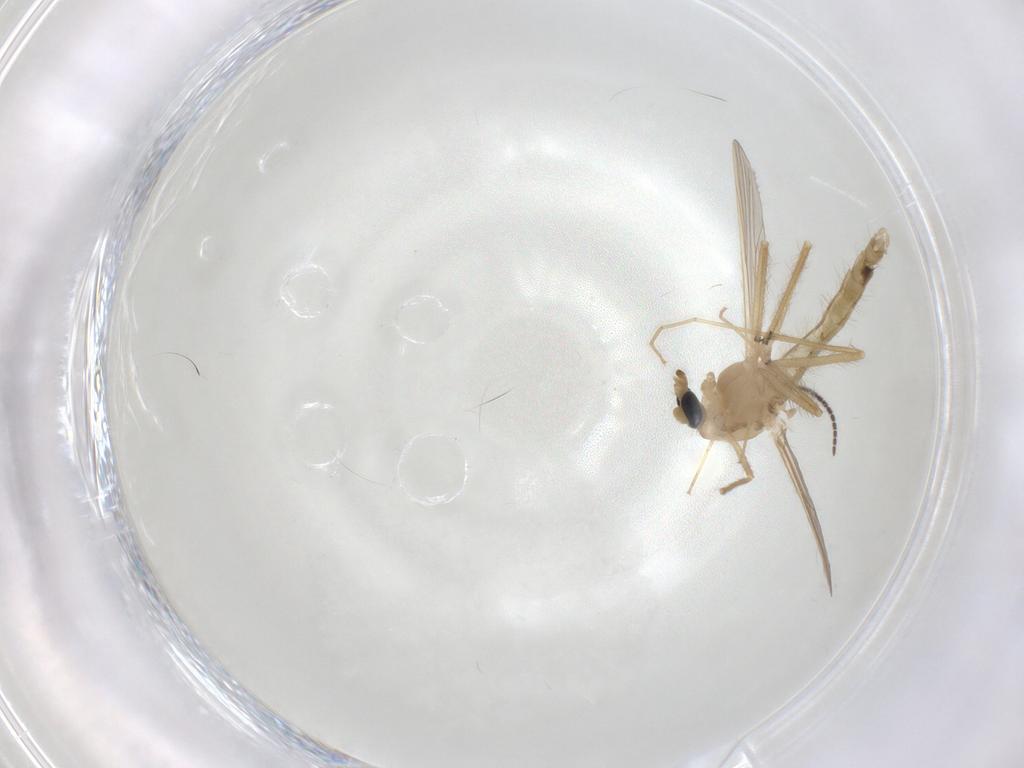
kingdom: Animalia
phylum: Arthropoda
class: Insecta
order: Diptera
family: Chironomidae
